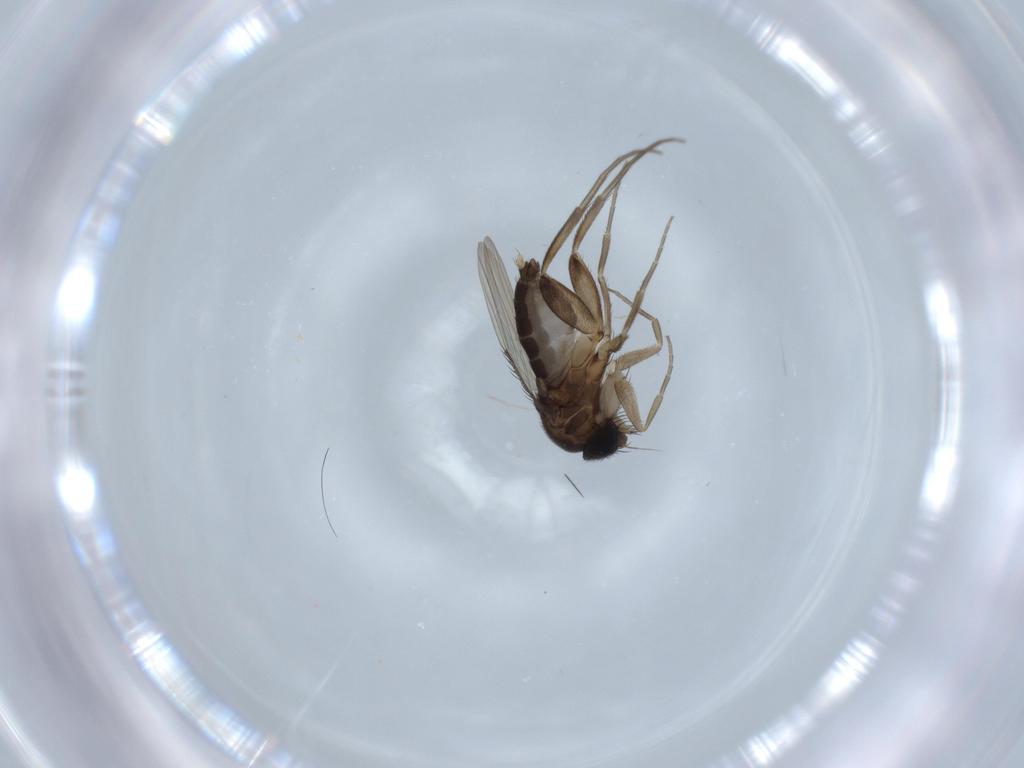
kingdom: Animalia
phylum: Arthropoda
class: Insecta
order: Diptera
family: Phoridae
